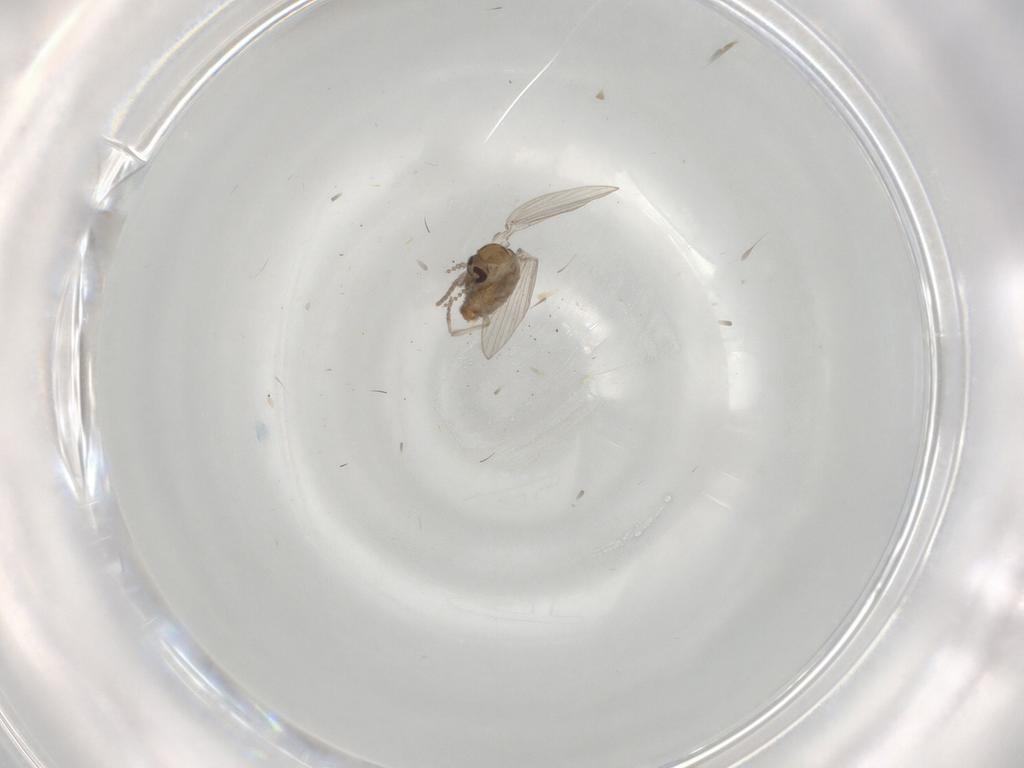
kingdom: Animalia
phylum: Arthropoda
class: Insecta
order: Diptera
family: Psychodidae
